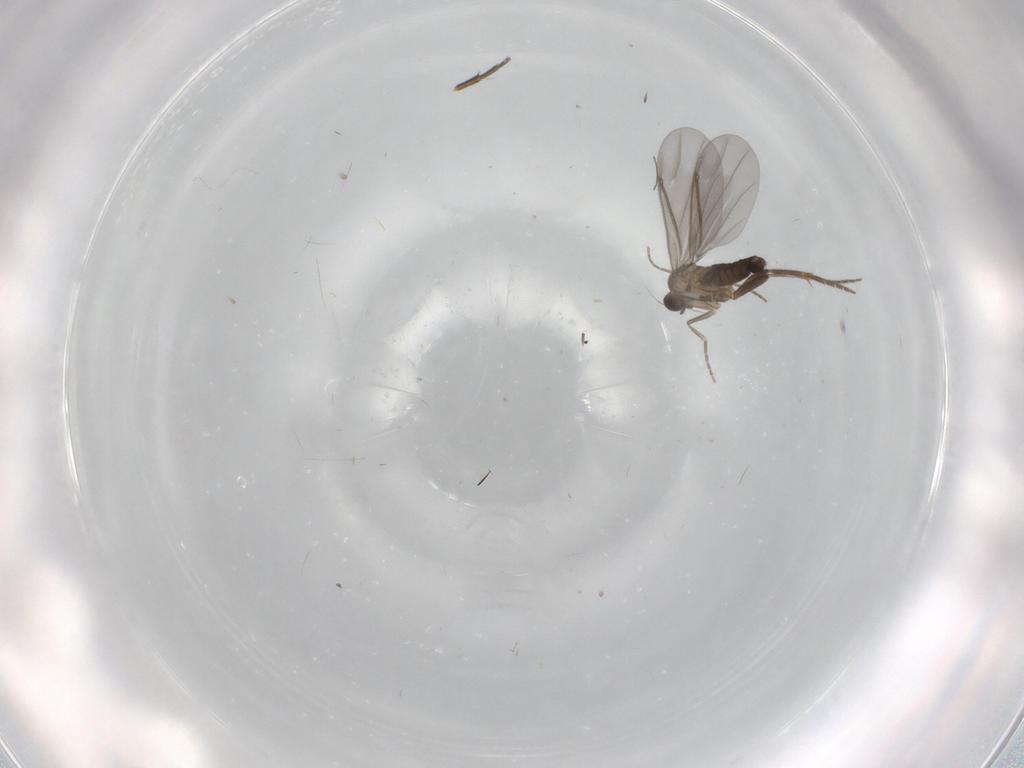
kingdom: Animalia
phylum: Arthropoda
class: Insecta
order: Diptera
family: Phoridae
